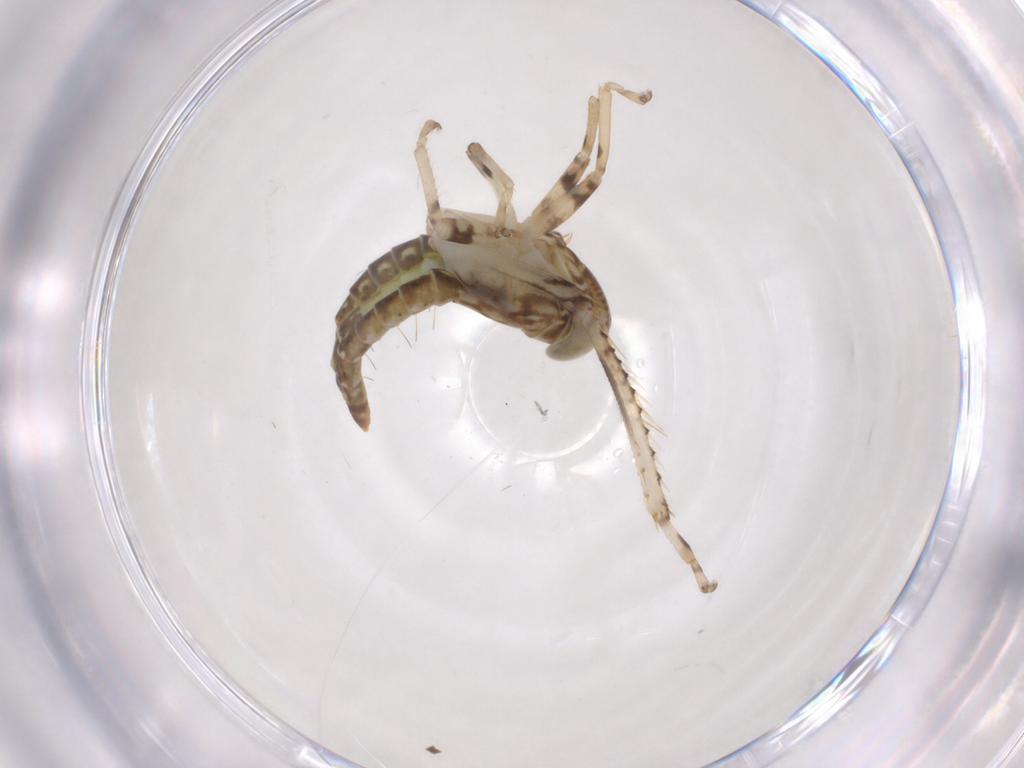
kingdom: Animalia
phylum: Arthropoda
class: Insecta
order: Hemiptera
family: Cicadellidae
